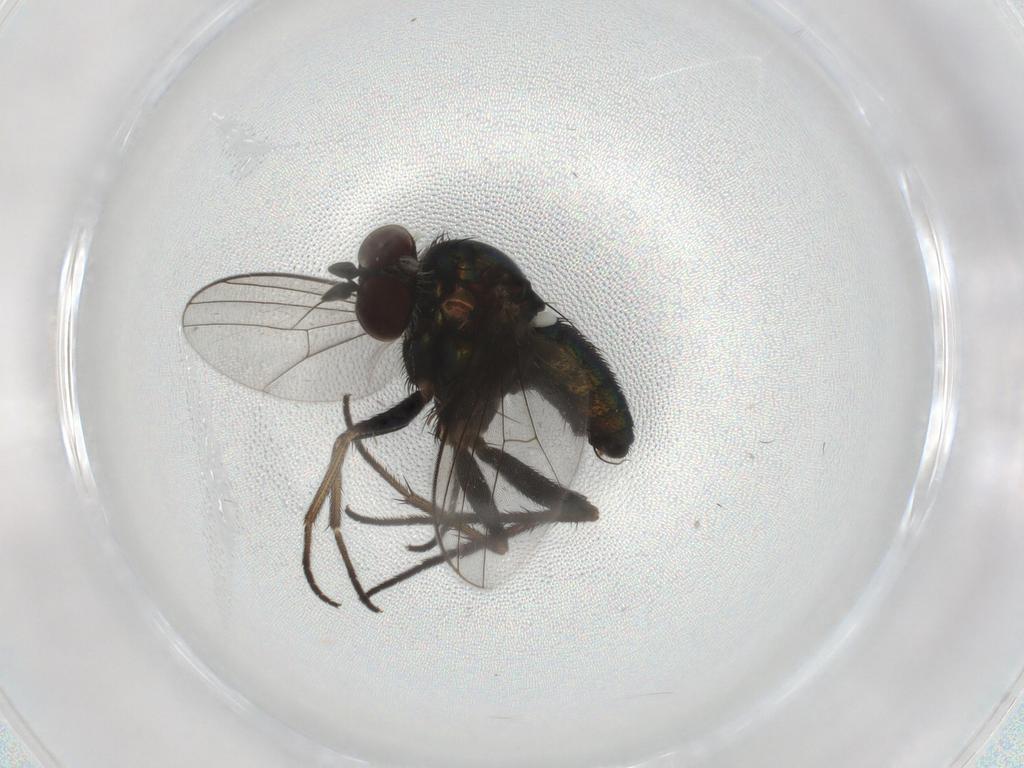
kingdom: Animalia
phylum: Arthropoda
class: Insecta
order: Diptera
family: Dolichopodidae
